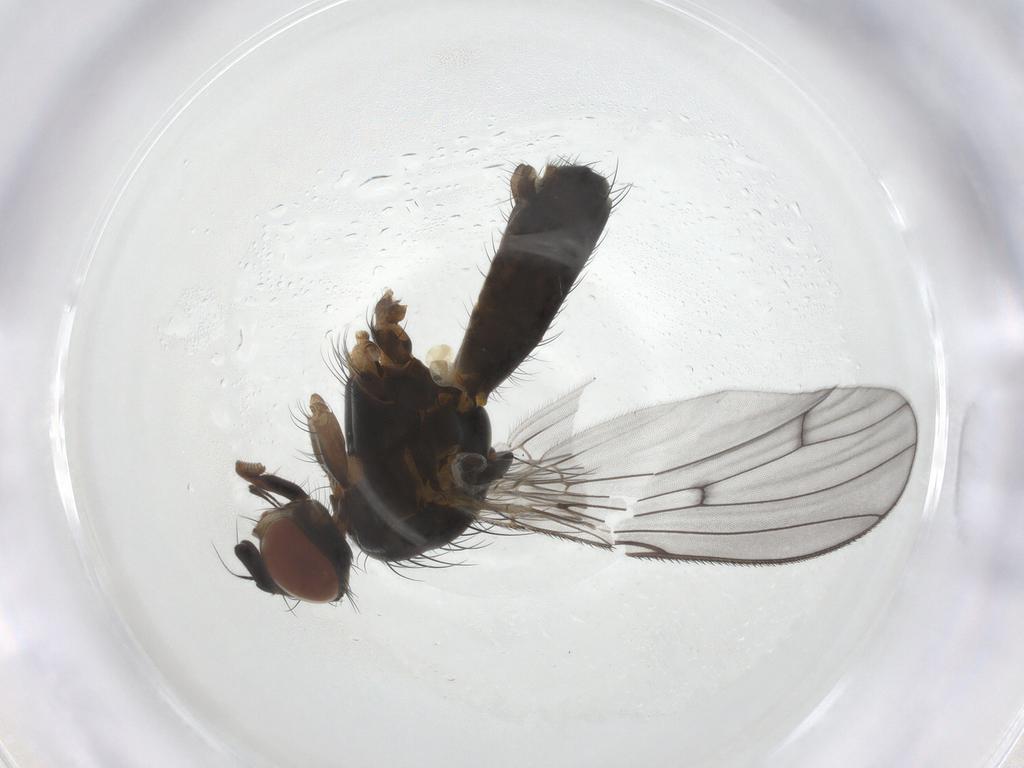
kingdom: Animalia
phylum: Arthropoda
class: Insecta
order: Diptera
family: Anthomyiidae
